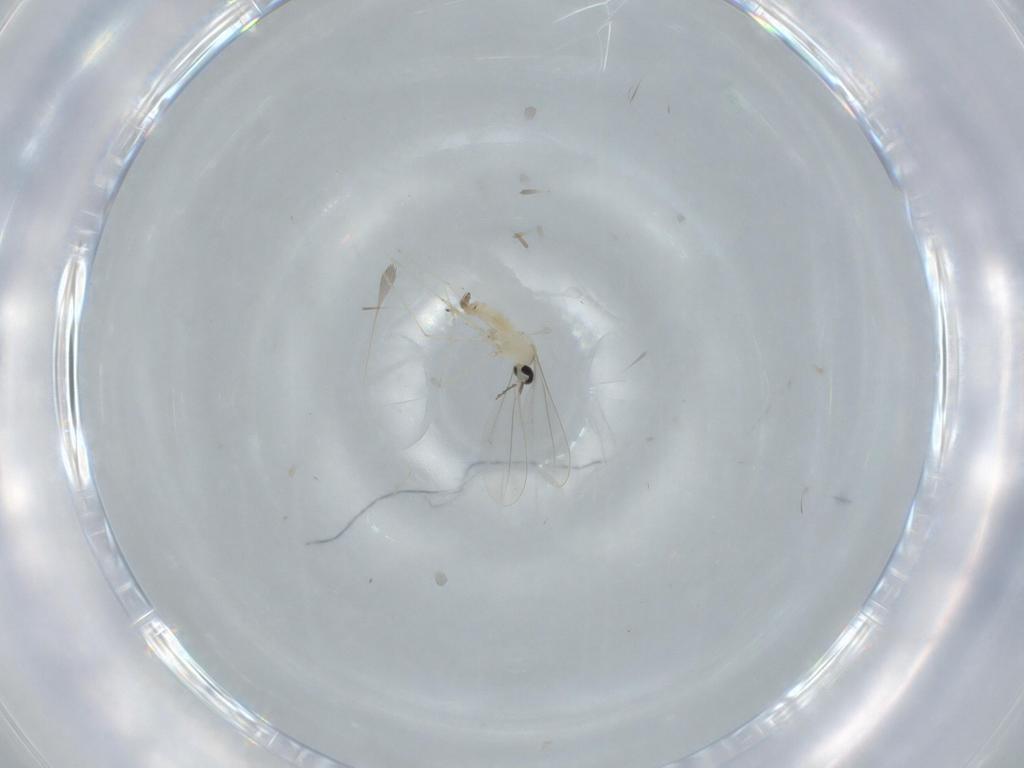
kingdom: Animalia
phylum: Arthropoda
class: Insecta
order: Diptera
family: Cecidomyiidae
